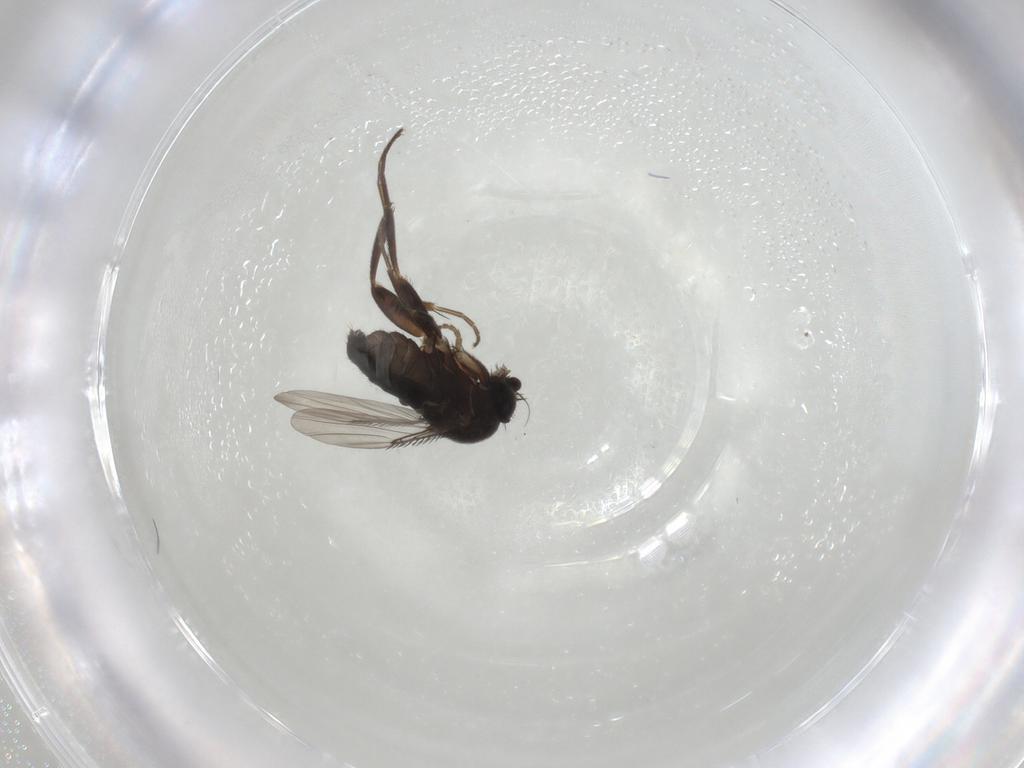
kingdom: Animalia
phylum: Arthropoda
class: Insecta
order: Diptera
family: Phoridae
